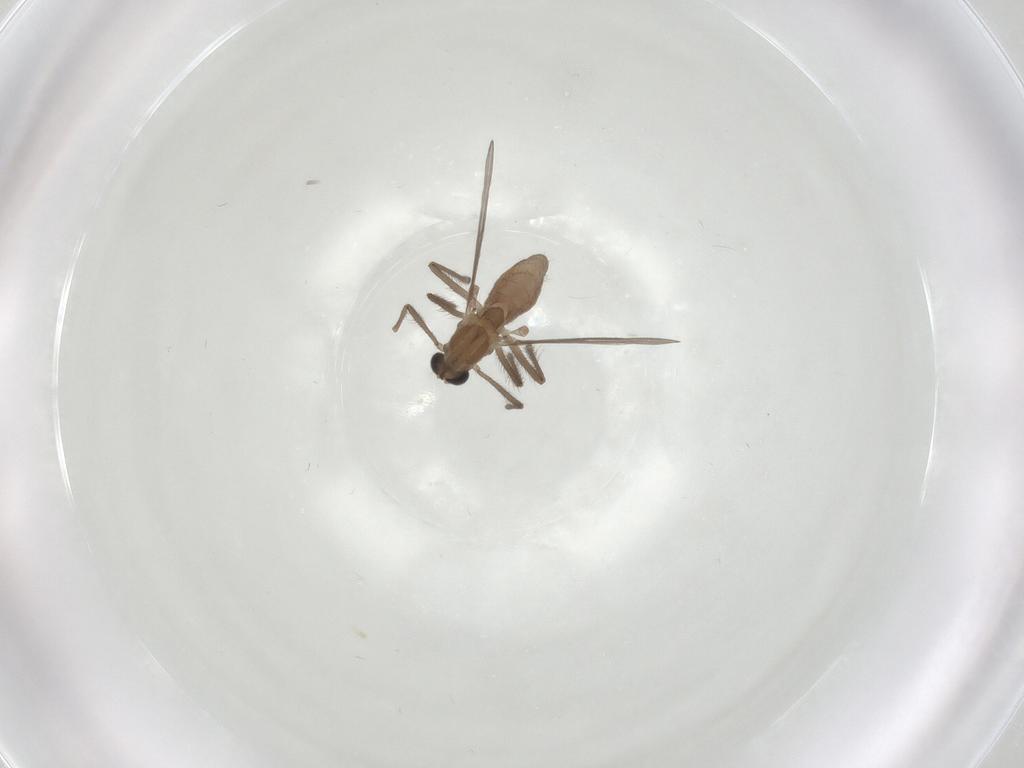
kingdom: Animalia
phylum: Arthropoda
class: Insecta
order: Diptera
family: Chironomidae
